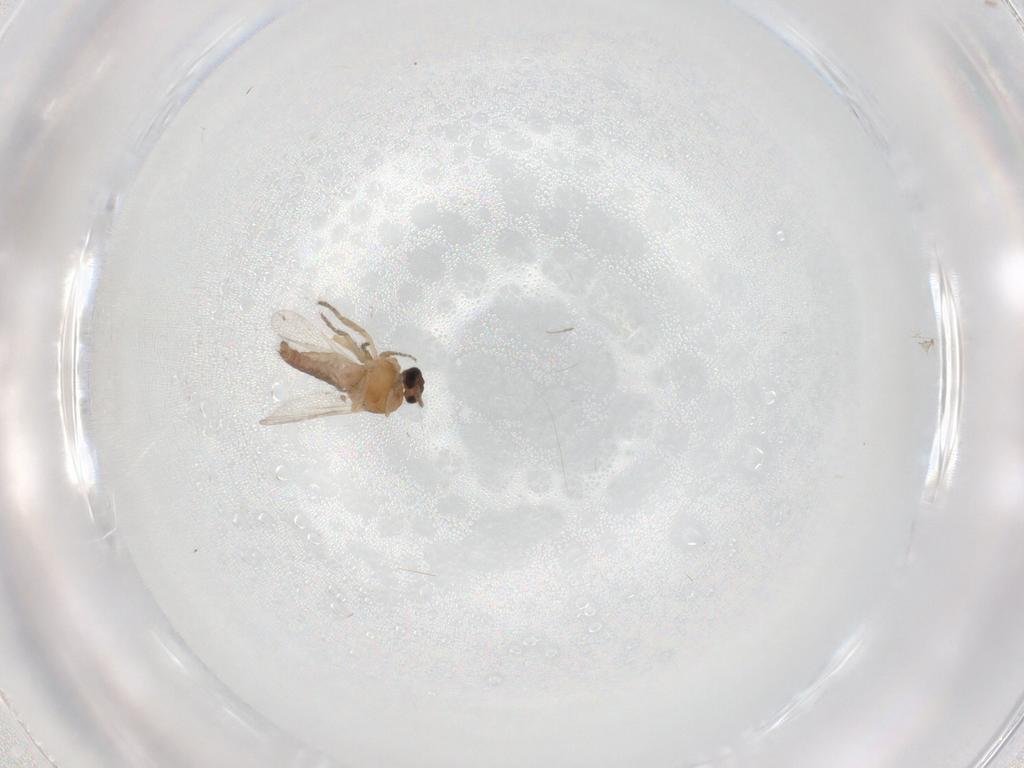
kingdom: Animalia
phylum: Arthropoda
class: Insecta
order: Diptera
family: Ceratopogonidae
